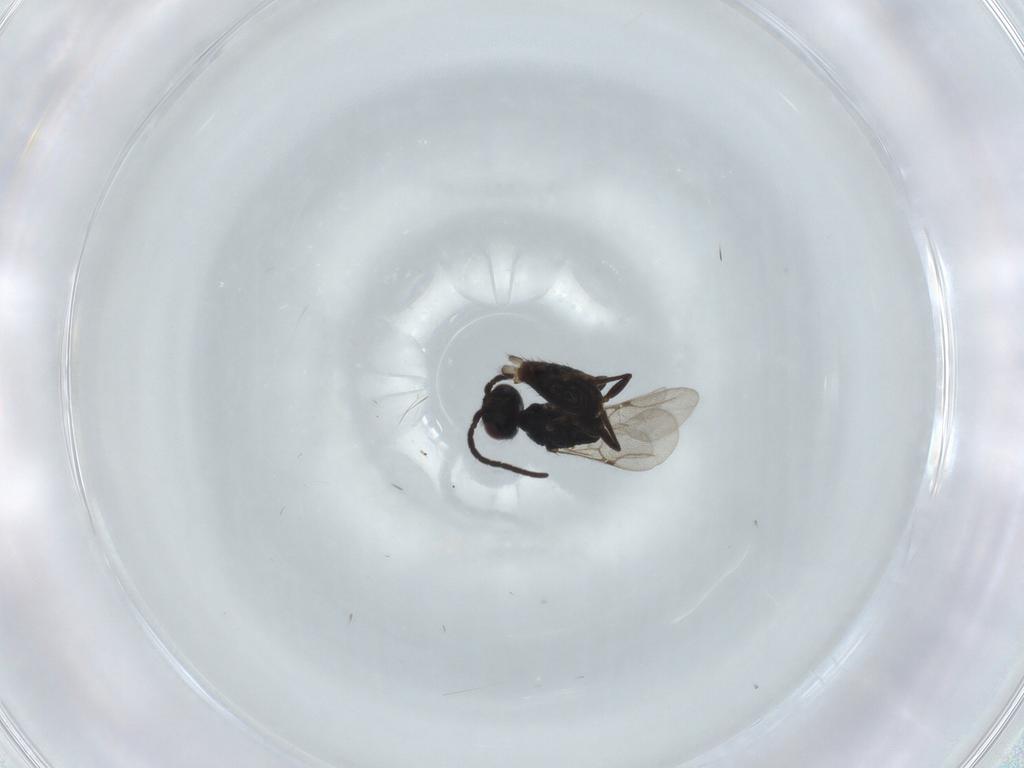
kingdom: Animalia
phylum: Arthropoda
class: Insecta
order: Hymenoptera
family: Bethylidae
